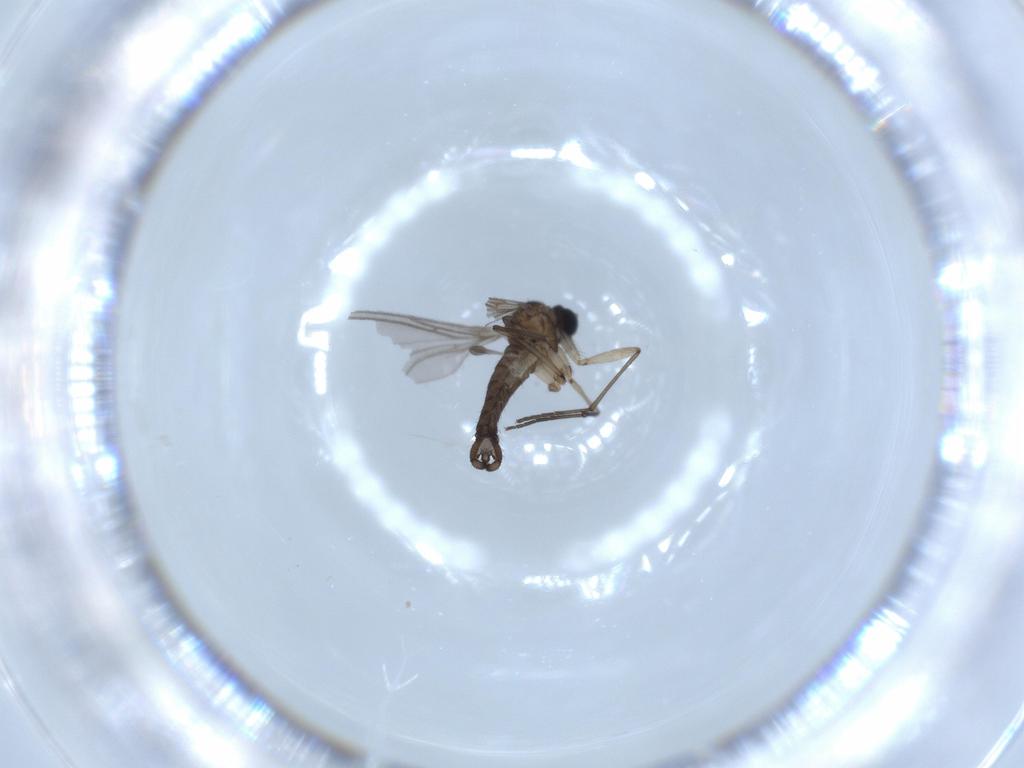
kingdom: Animalia
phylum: Arthropoda
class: Insecta
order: Diptera
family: Sciaridae
